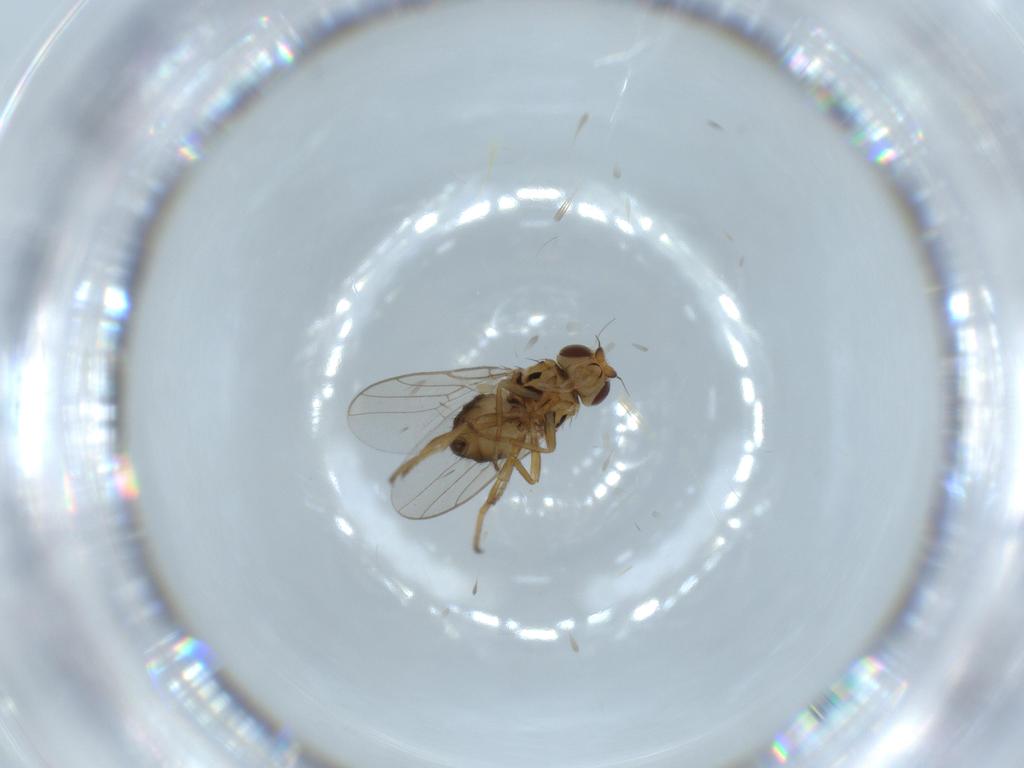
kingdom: Animalia
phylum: Arthropoda
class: Insecta
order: Diptera
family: Chloropidae
